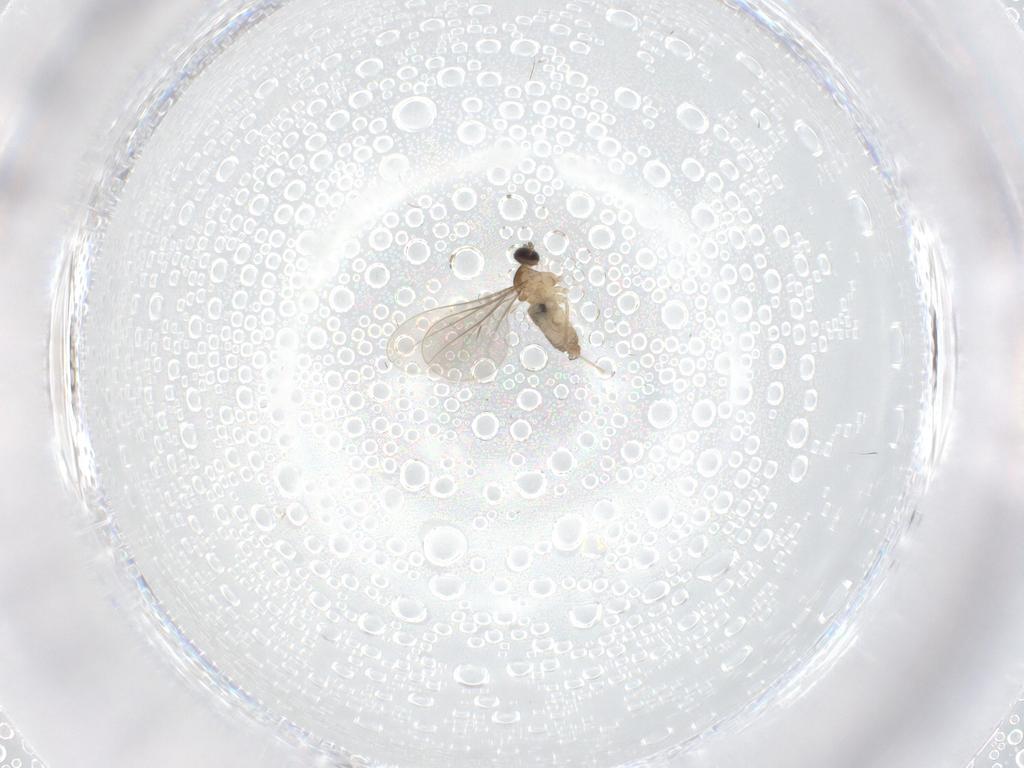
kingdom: Animalia
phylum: Arthropoda
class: Insecta
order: Diptera
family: Cecidomyiidae
